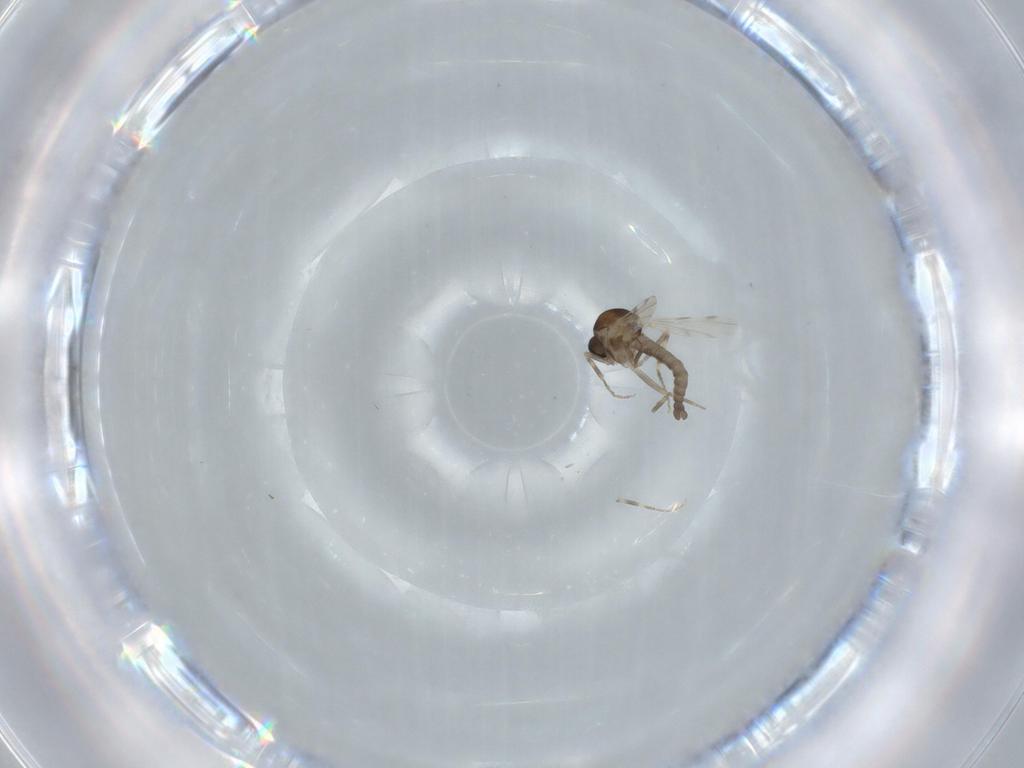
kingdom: Animalia
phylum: Arthropoda
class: Insecta
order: Diptera
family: Ceratopogonidae
